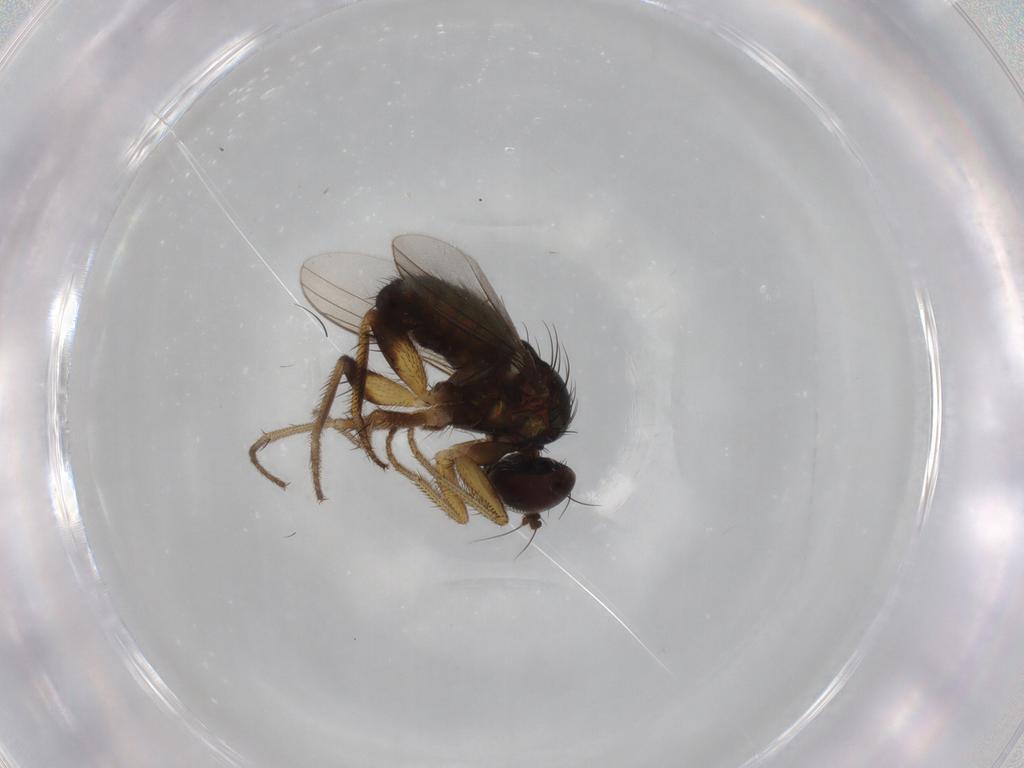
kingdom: Animalia
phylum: Arthropoda
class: Insecta
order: Diptera
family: Dolichopodidae
